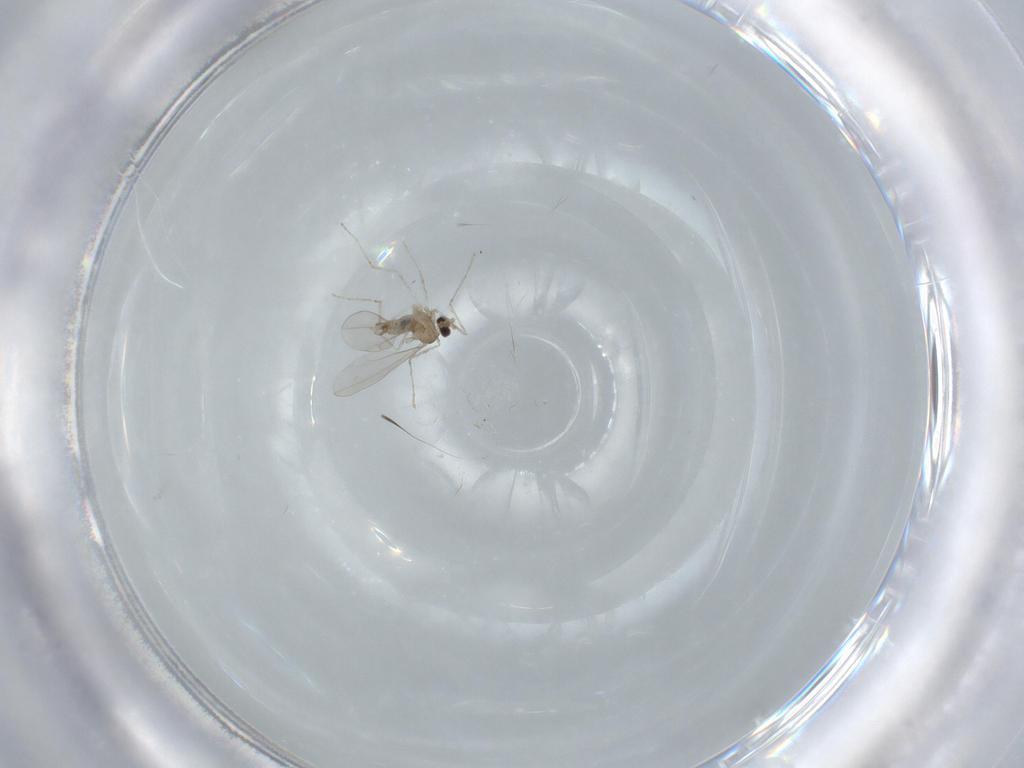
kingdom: Animalia
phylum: Arthropoda
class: Insecta
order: Diptera
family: Cecidomyiidae
